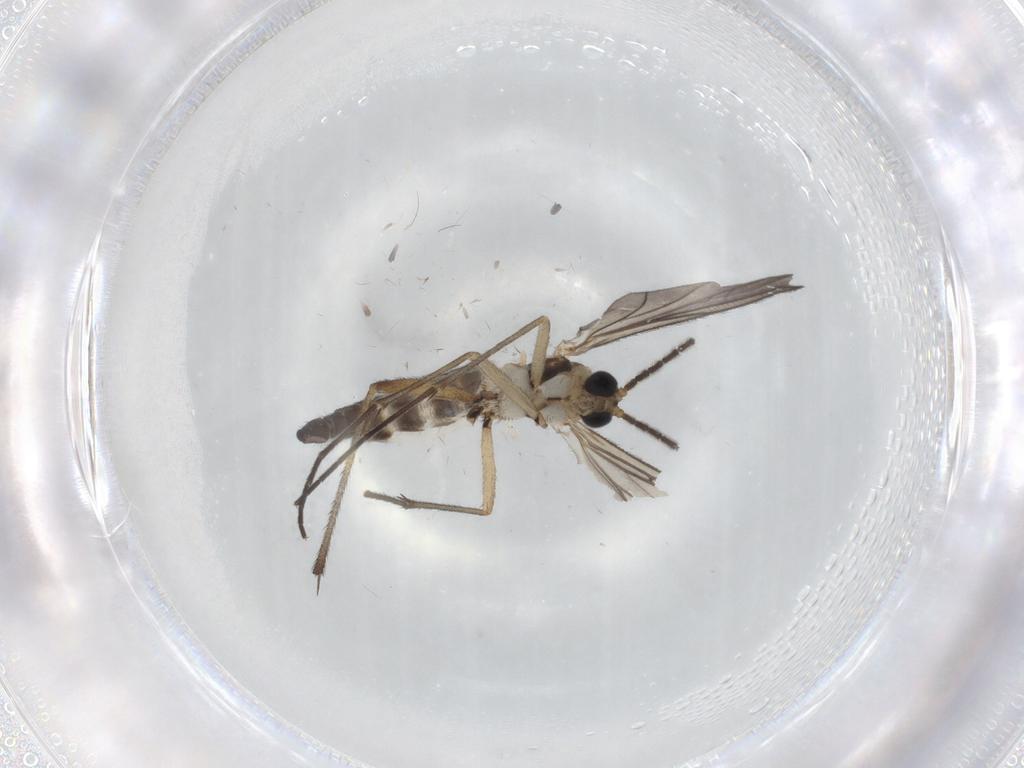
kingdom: Animalia
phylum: Arthropoda
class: Insecta
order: Diptera
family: Sciaridae
